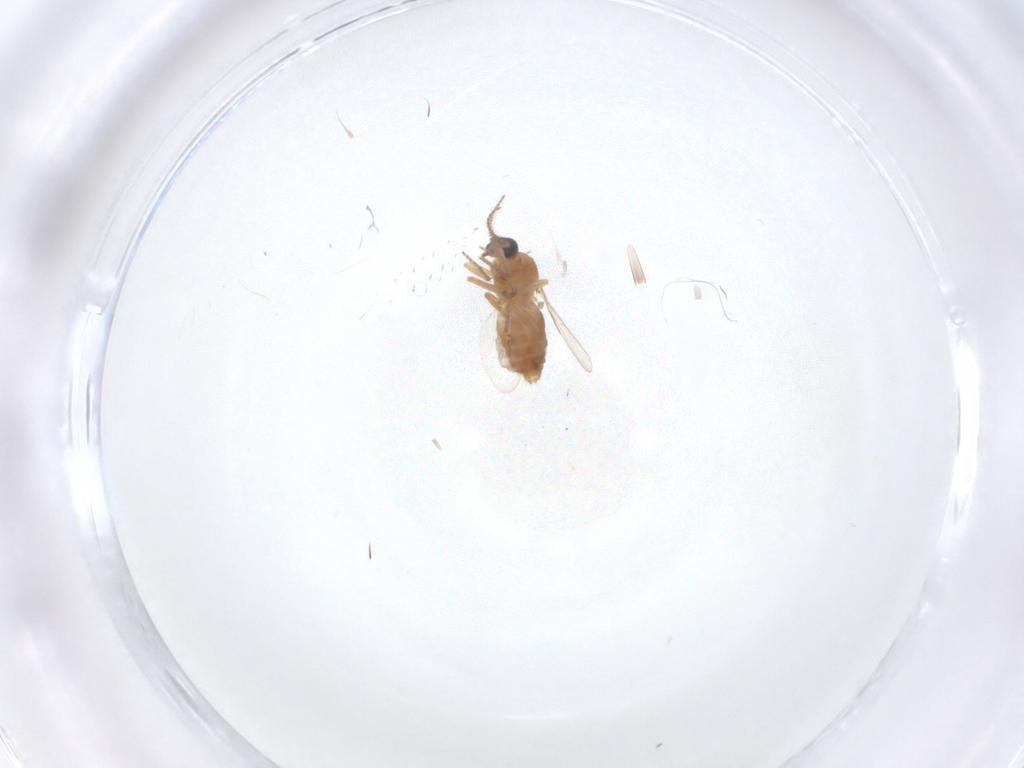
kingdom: Animalia
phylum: Arthropoda
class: Insecta
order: Diptera
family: Ceratopogonidae
